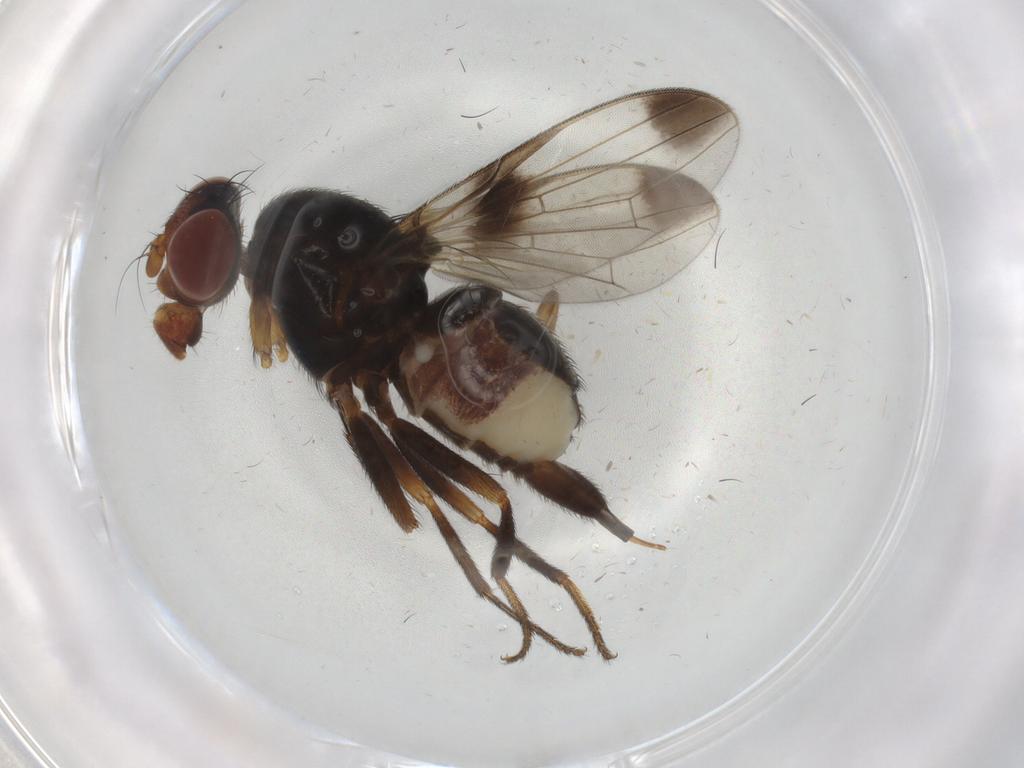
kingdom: Animalia
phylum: Arthropoda
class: Insecta
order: Diptera
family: Ulidiidae
